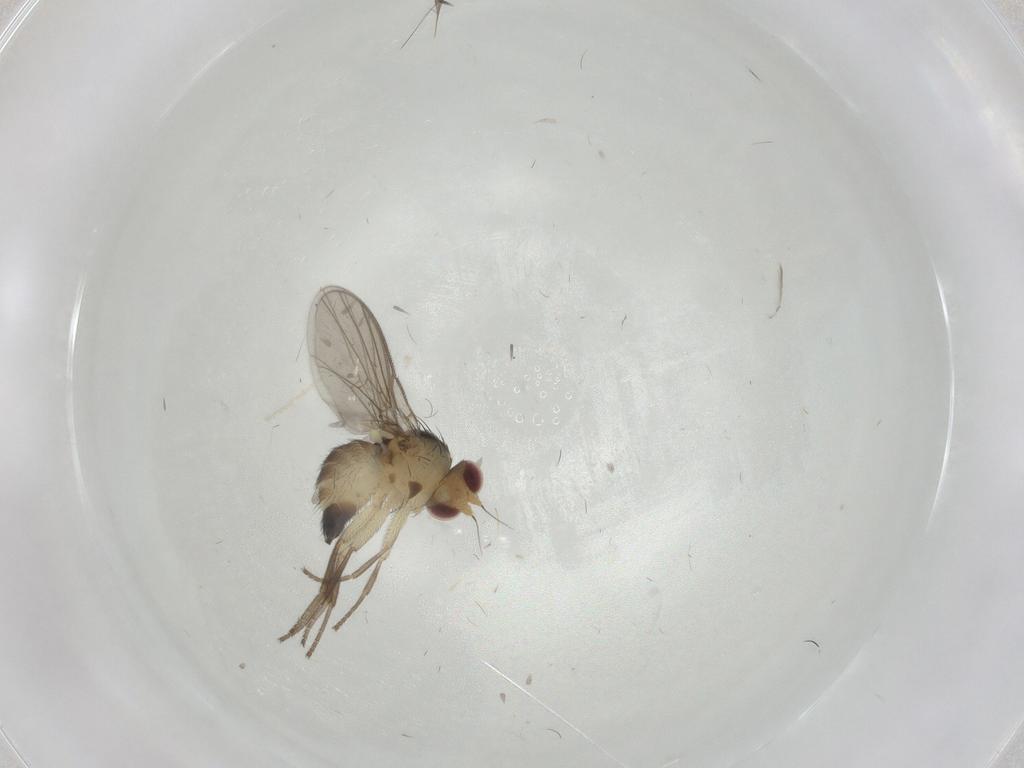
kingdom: Animalia
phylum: Arthropoda
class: Insecta
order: Diptera
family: Agromyzidae
